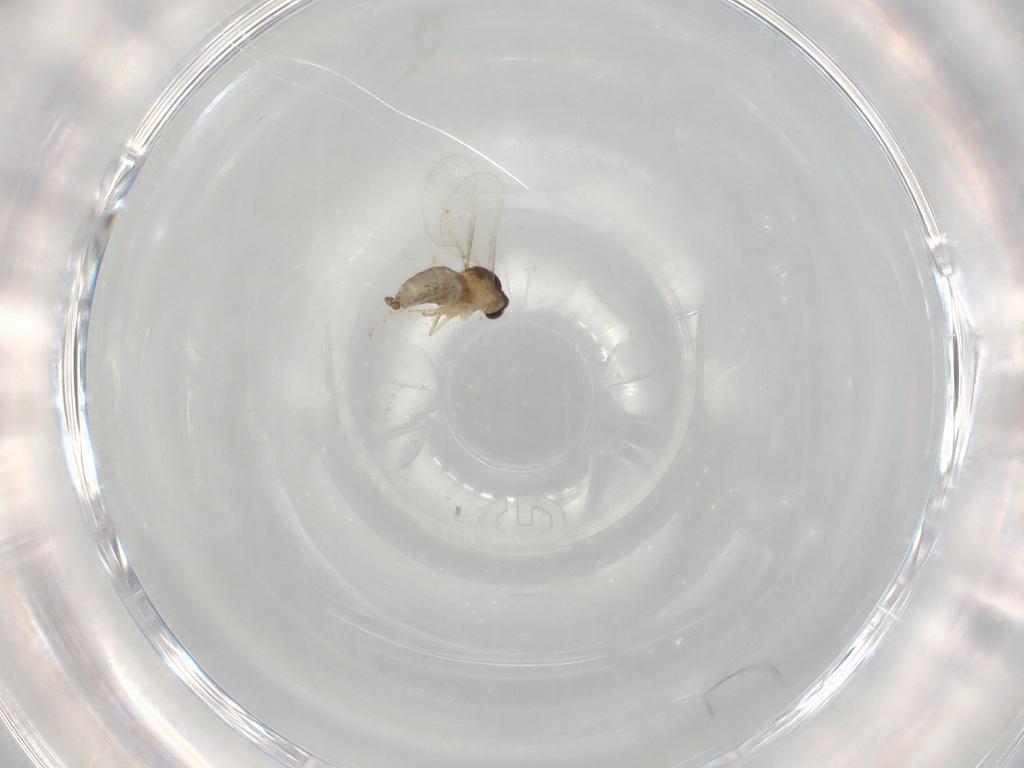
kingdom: Animalia
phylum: Arthropoda
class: Insecta
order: Diptera
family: Cecidomyiidae
